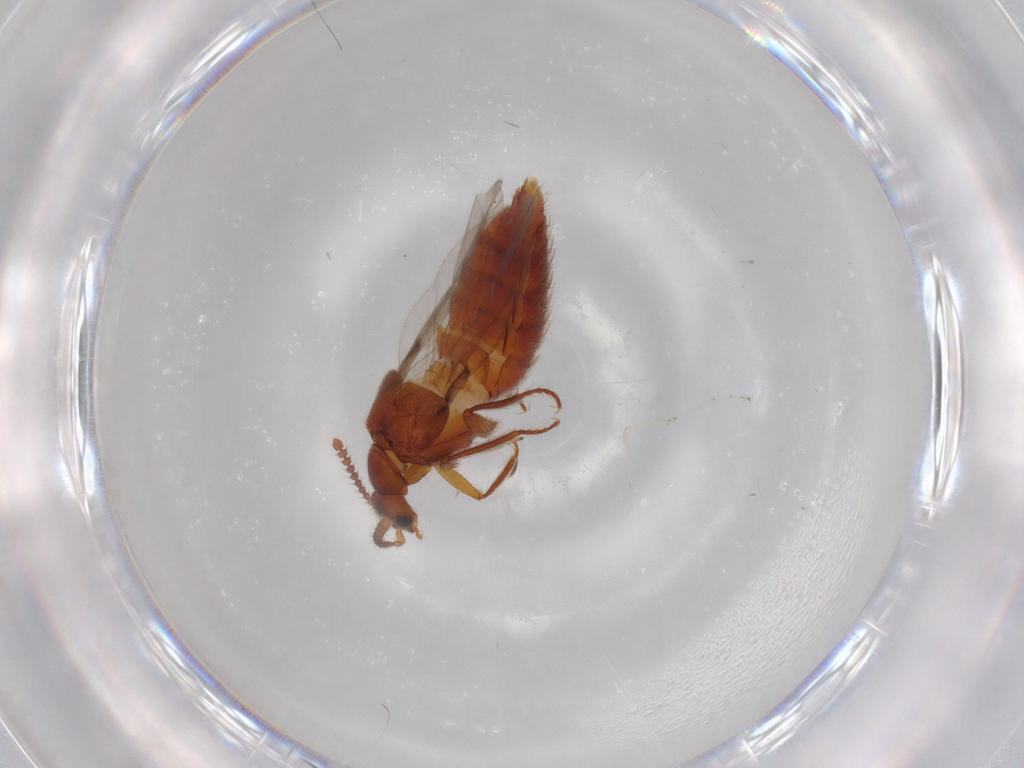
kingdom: Animalia
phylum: Arthropoda
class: Insecta
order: Coleoptera
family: Staphylinidae
